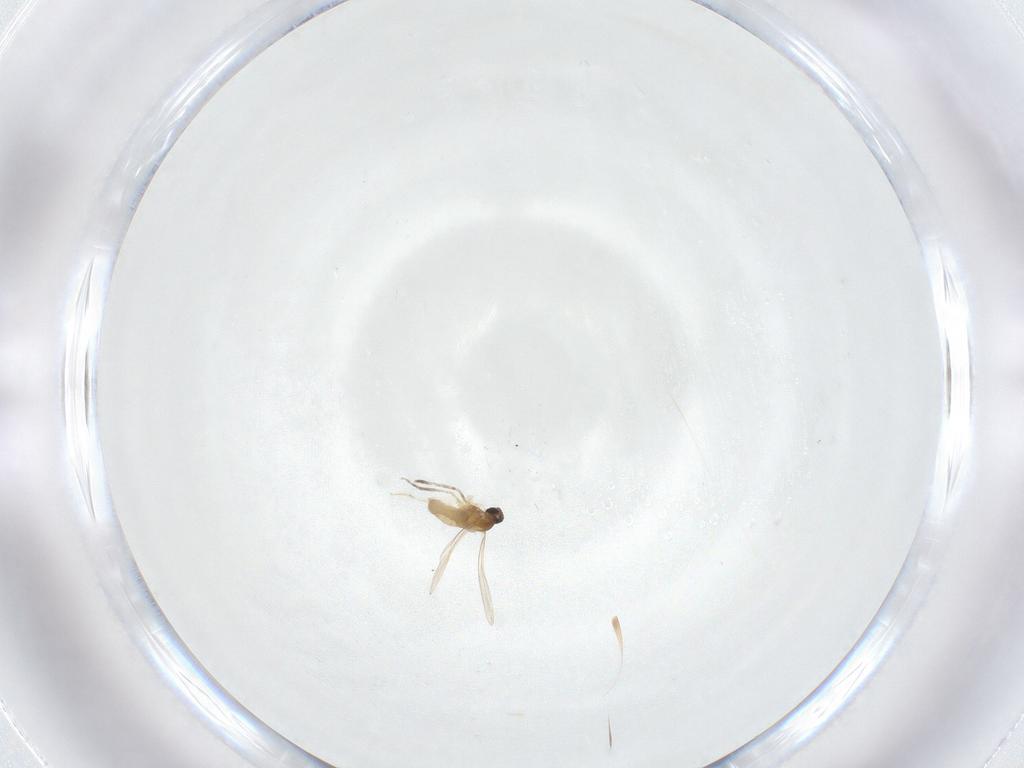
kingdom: Animalia
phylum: Arthropoda
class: Insecta
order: Diptera
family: Cecidomyiidae
